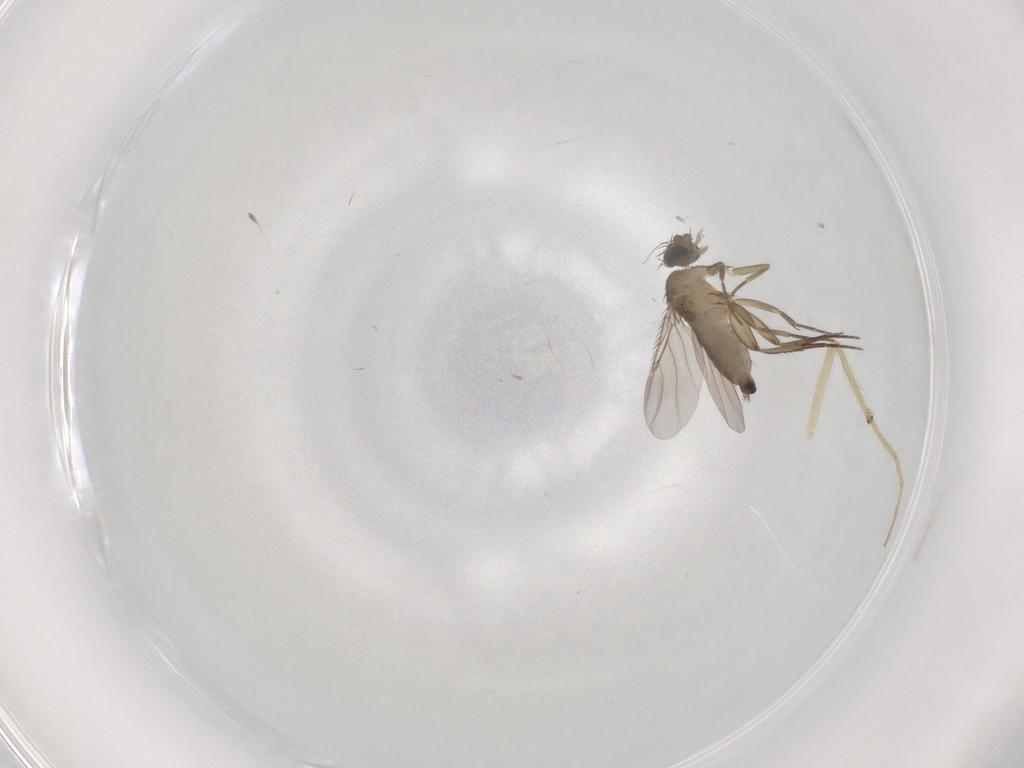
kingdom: Animalia
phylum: Arthropoda
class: Insecta
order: Diptera
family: Phoridae
